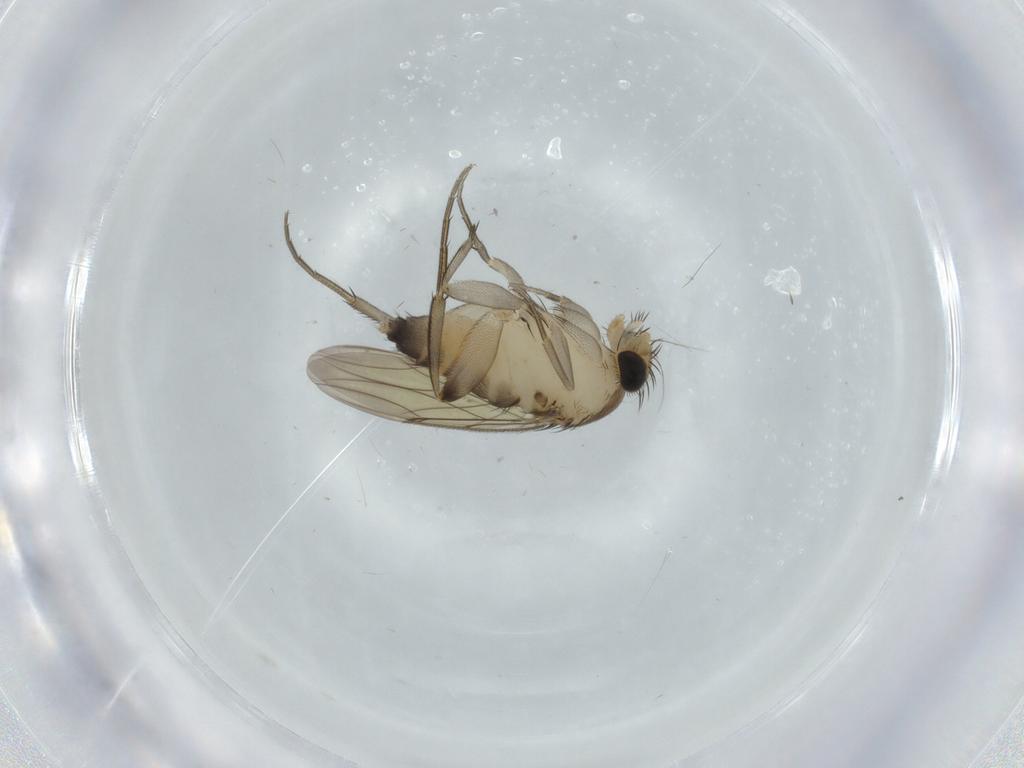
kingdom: Animalia
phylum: Arthropoda
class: Insecta
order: Diptera
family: Phoridae
